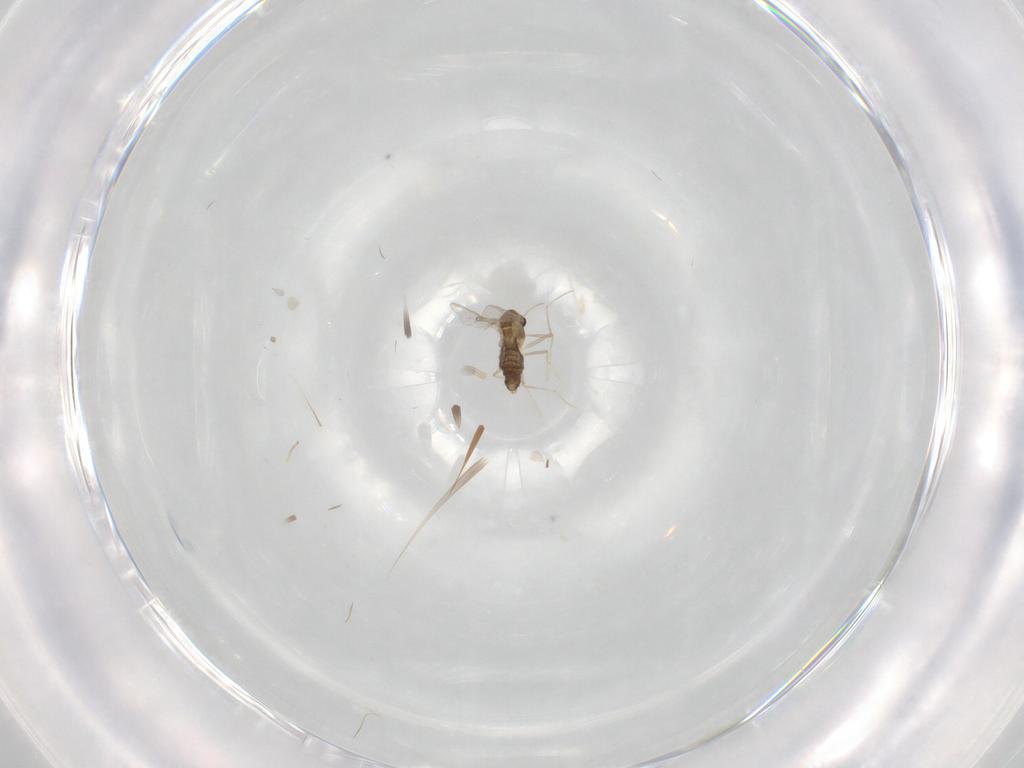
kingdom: Animalia
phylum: Arthropoda
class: Insecta
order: Diptera
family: Chironomidae
